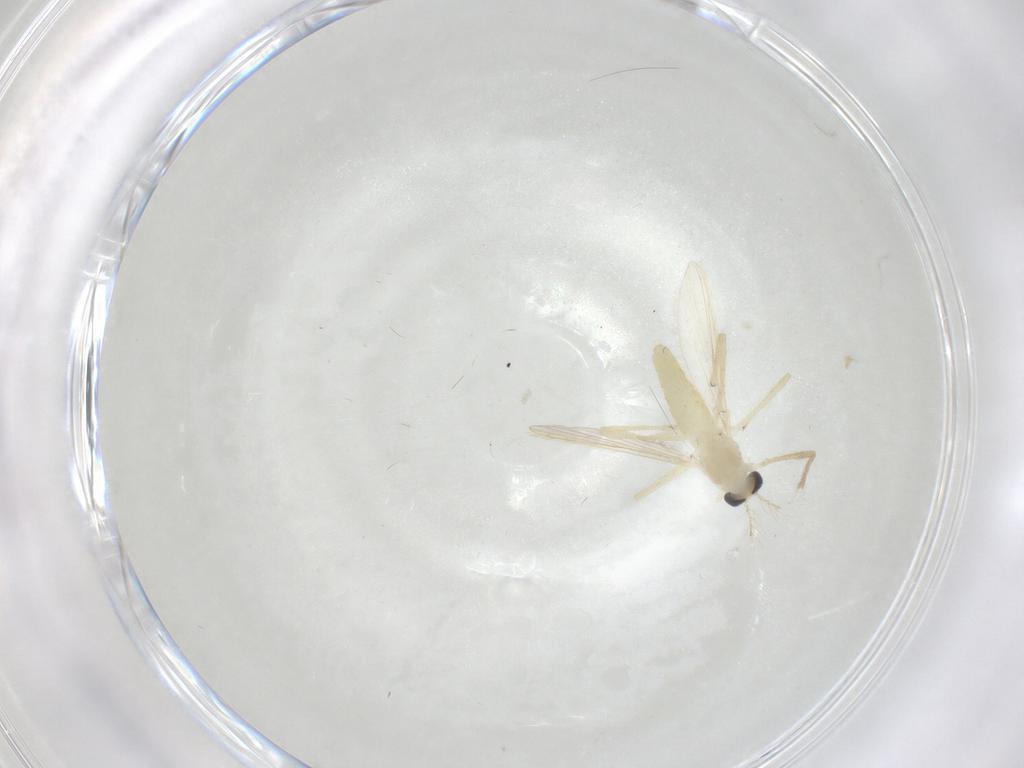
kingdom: Animalia
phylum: Arthropoda
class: Insecta
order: Diptera
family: Chironomidae
